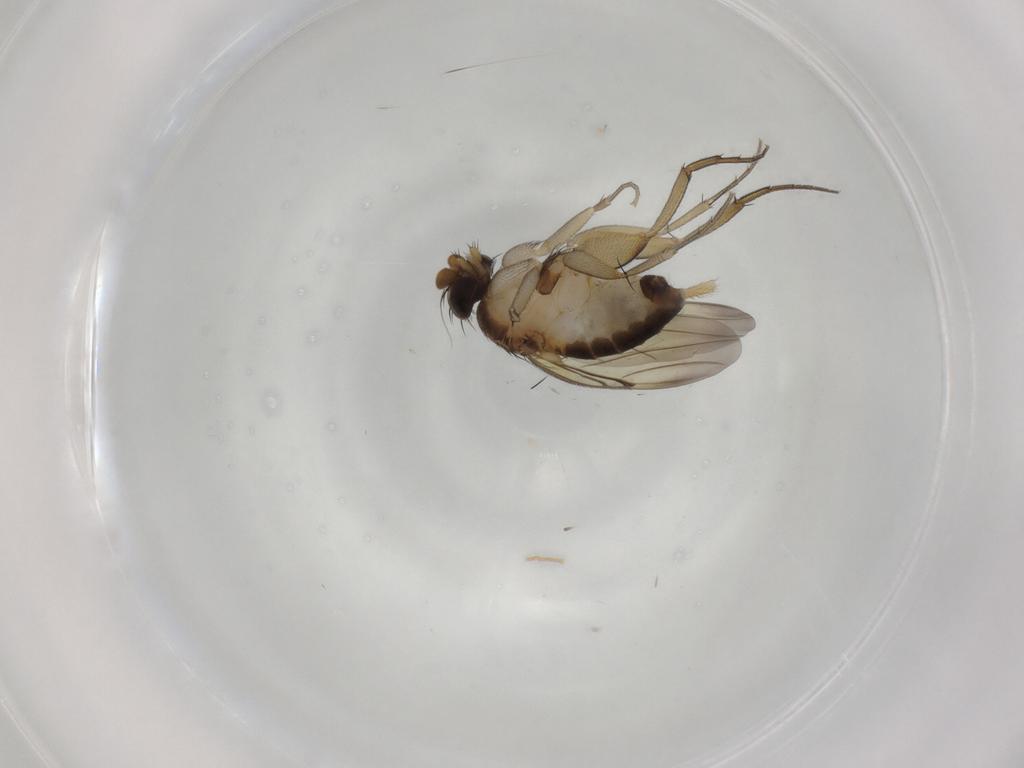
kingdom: Animalia
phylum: Arthropoda
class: Insecta
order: Diptera
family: Phoridae
